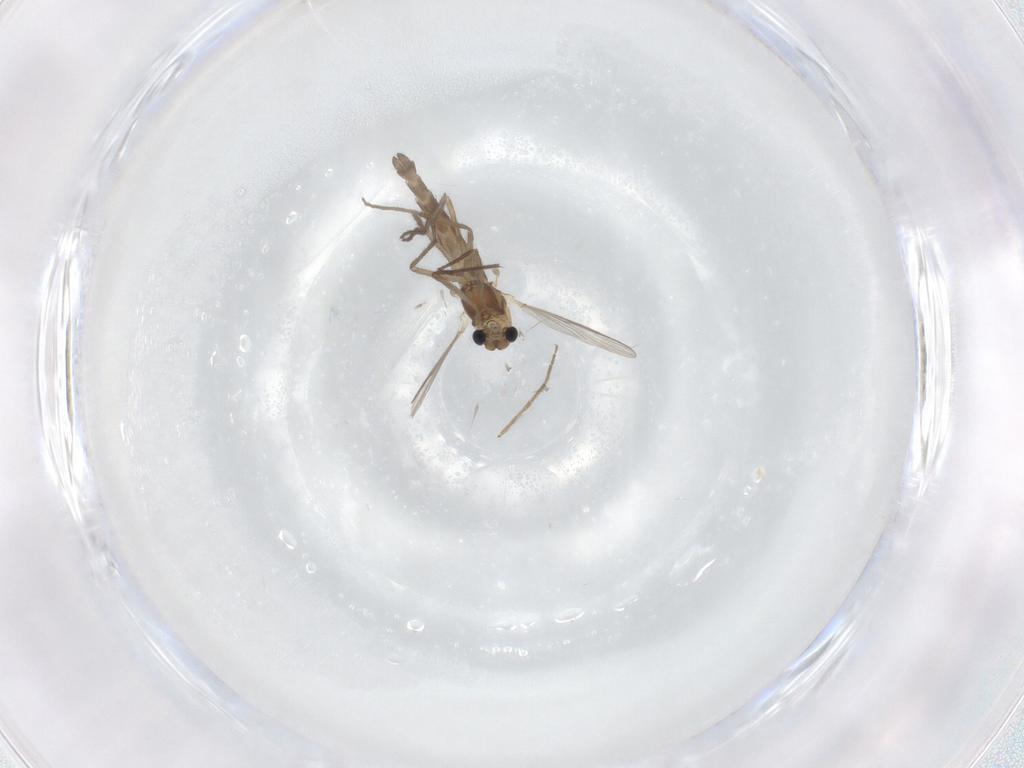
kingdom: Animalia
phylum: Arthropoda
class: Insecta
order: Diptera
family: Chironomidae
